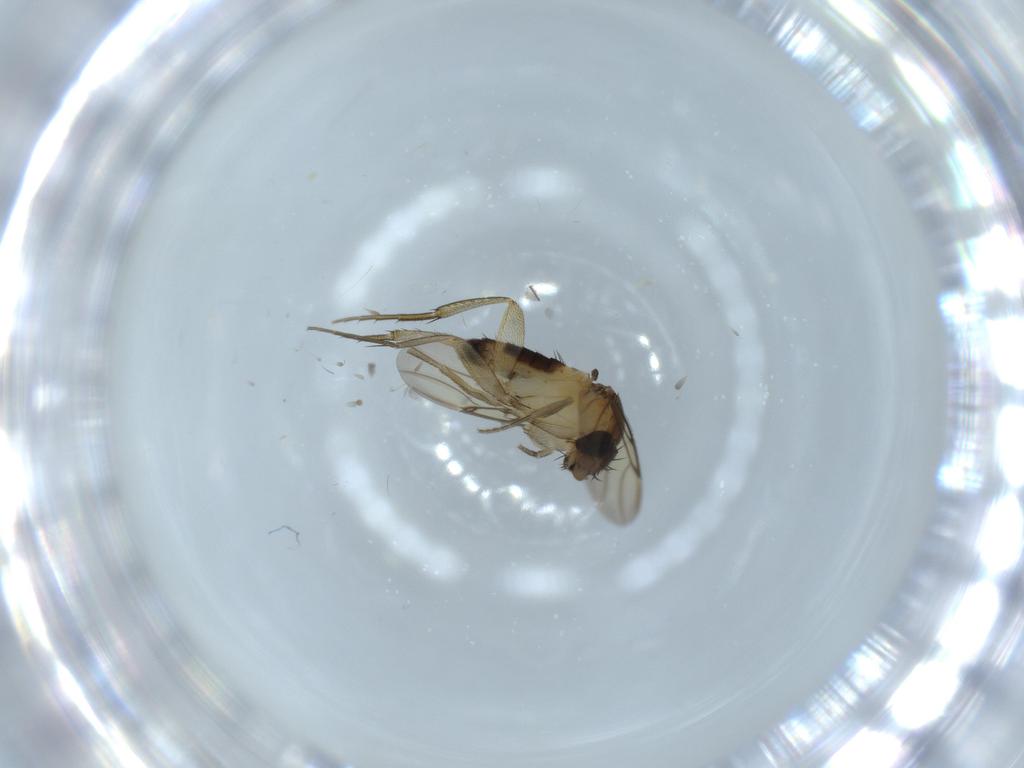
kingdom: Animalia
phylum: Arthropoda
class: Insecta
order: Diptera
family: Phoridae
